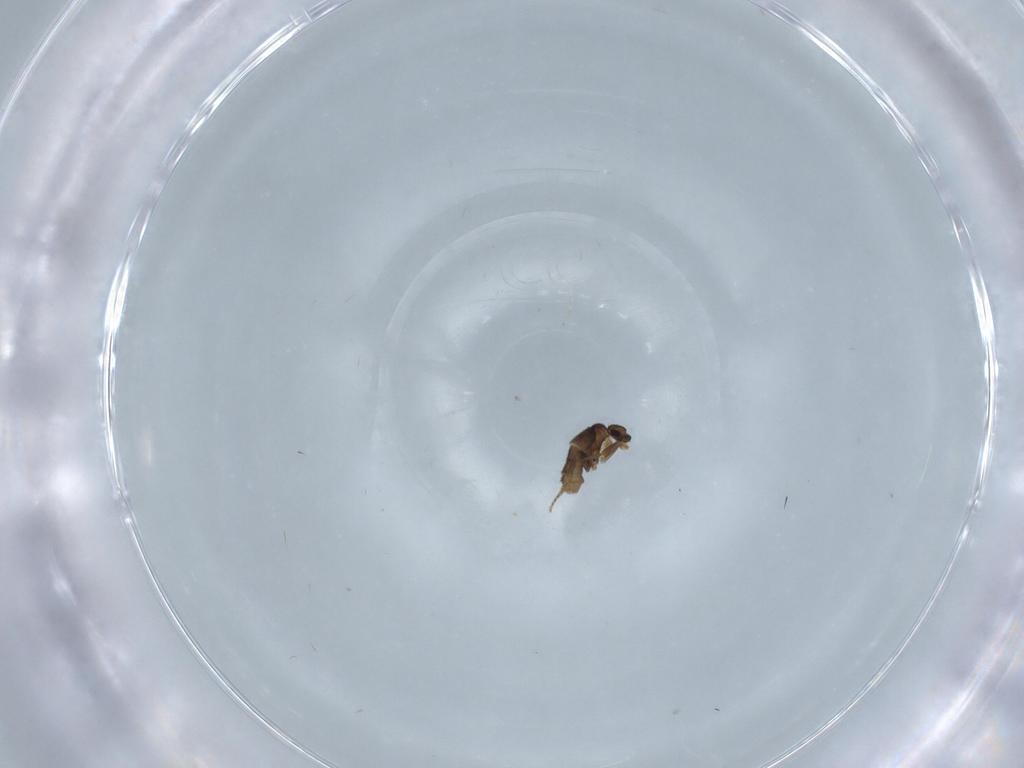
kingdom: Animalia
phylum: Arthropoda
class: Insecta
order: Diptera
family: Cecidomyiidae
